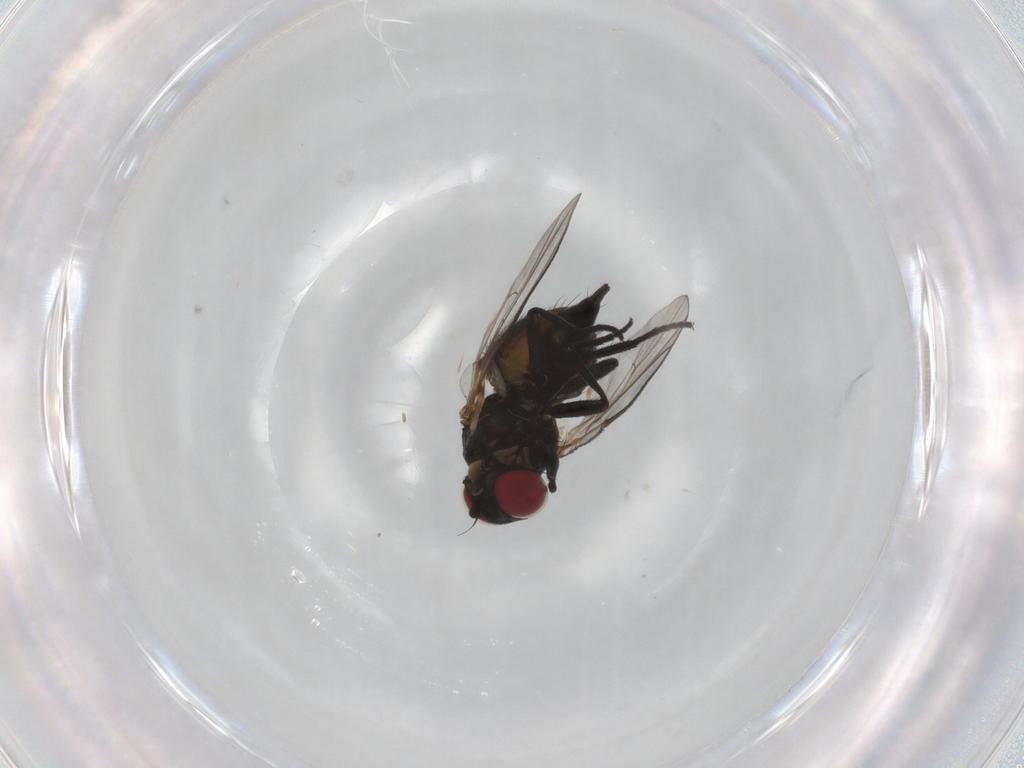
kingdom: Animalia
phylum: Arthropoda
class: Insecta
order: Diptera
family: Agromyzidae
